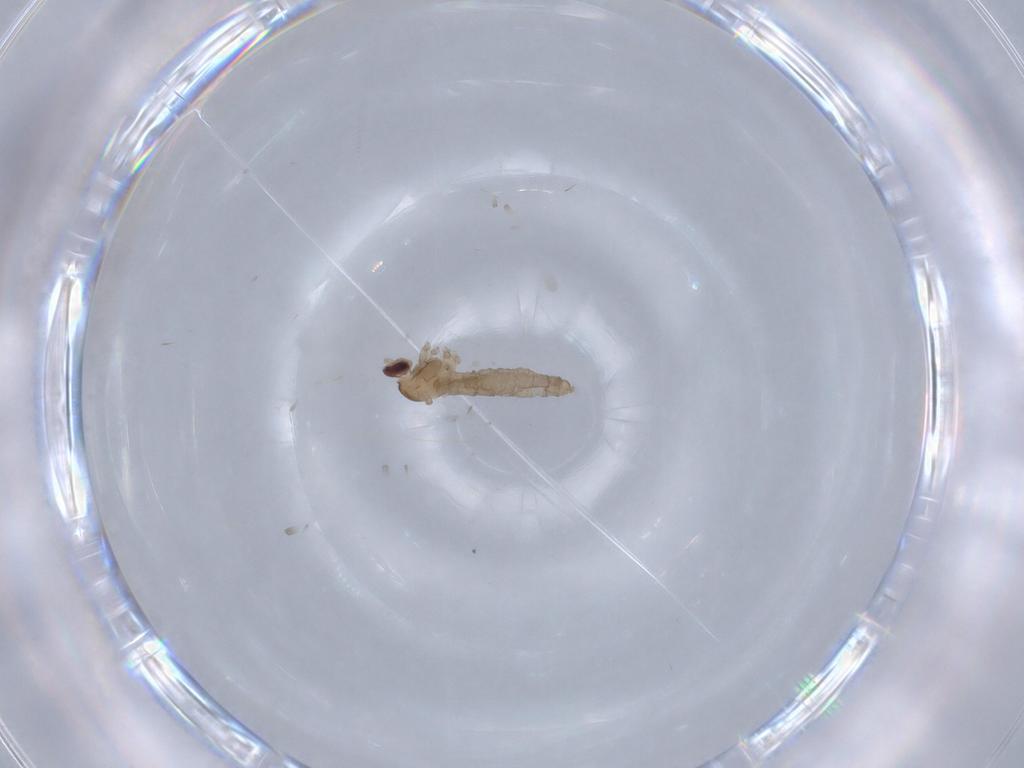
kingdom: Animalia
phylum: Arthropoda
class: Insecta
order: Diptera
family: Cecidomyiidae
